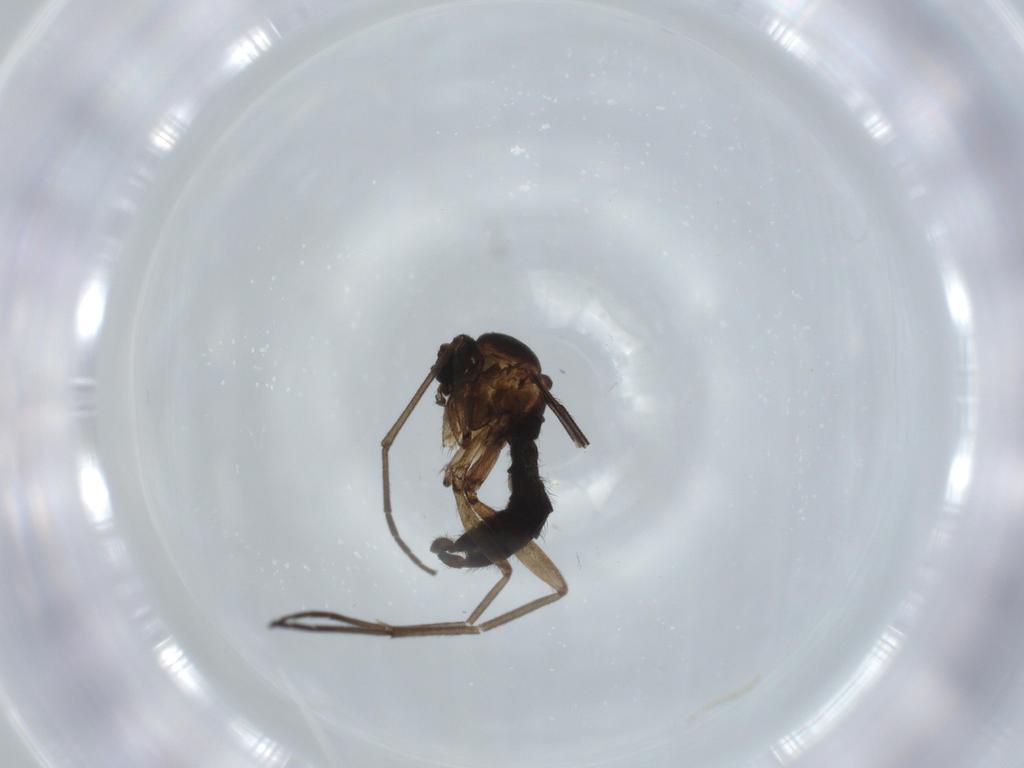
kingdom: Animalia
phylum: Arthropoda
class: Insecta
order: Diptera
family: Sciaridae
